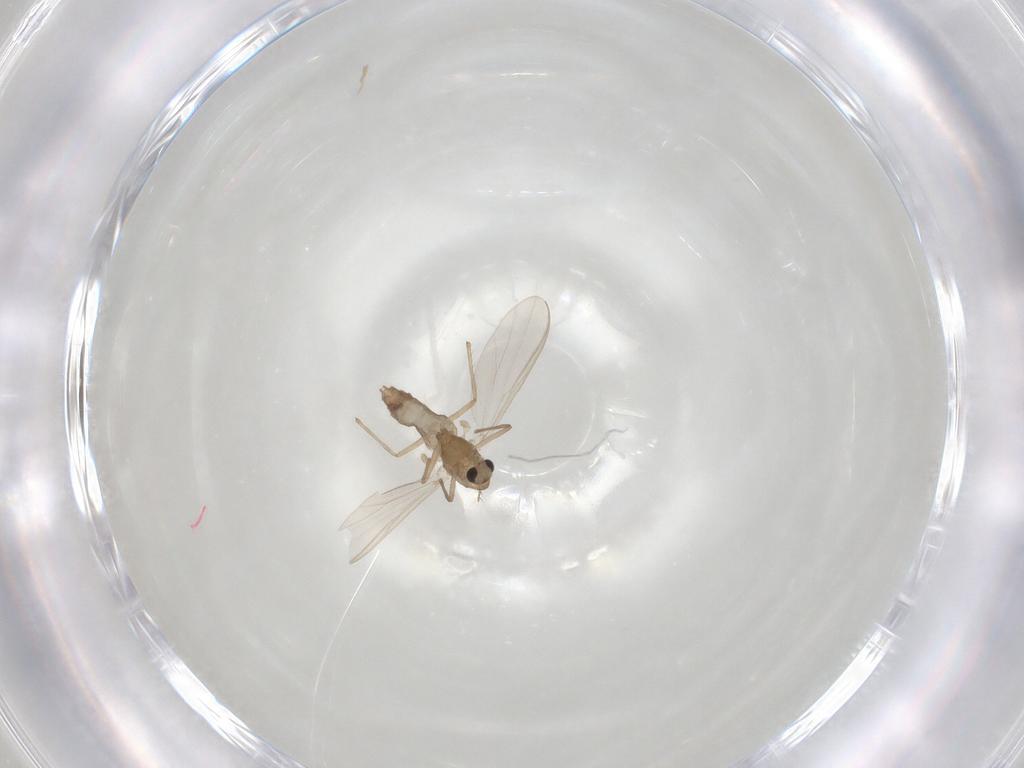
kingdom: Animalia
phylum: Arthropoda
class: Insecta
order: Diptera
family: Chironomidae
